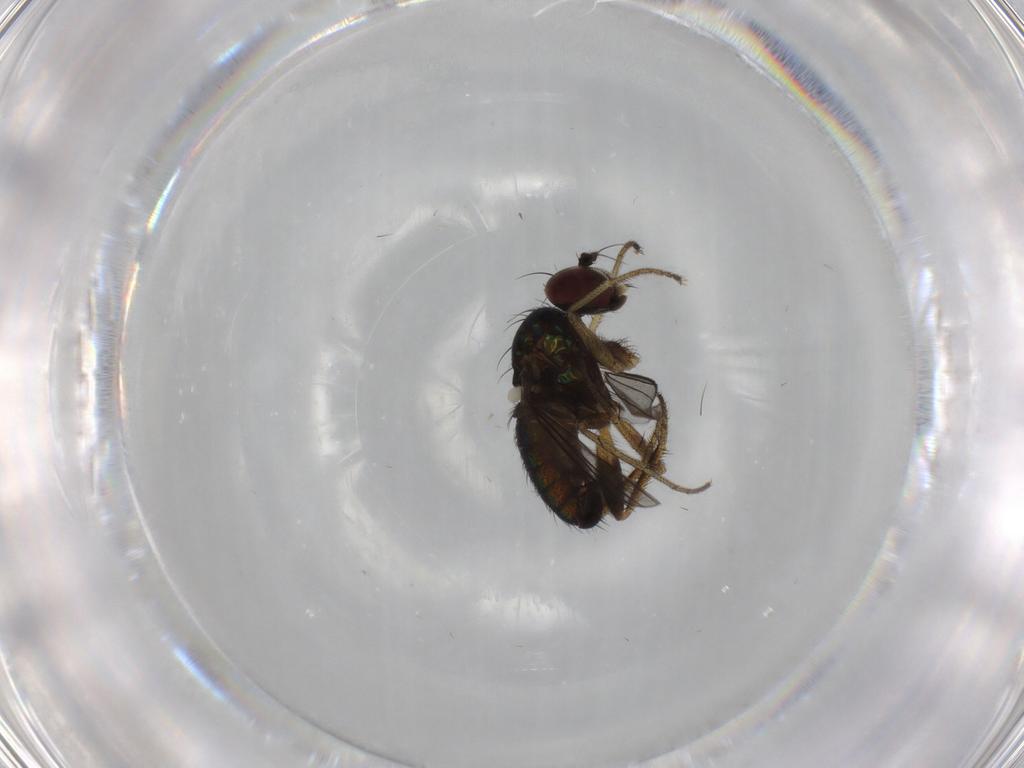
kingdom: Animalia
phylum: Arthropoda
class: Insecta
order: Diptera
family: Dolichopodidae
